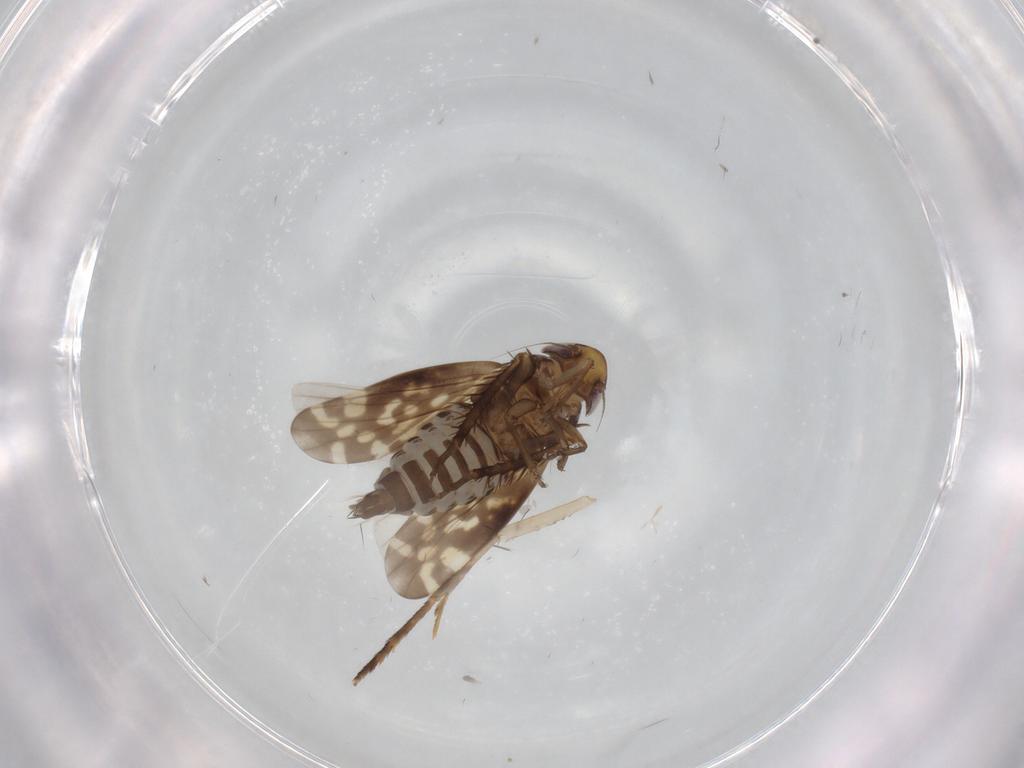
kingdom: Animalia
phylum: Arthropoda
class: Insecta
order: Hemiptera
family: Cicadellidae
